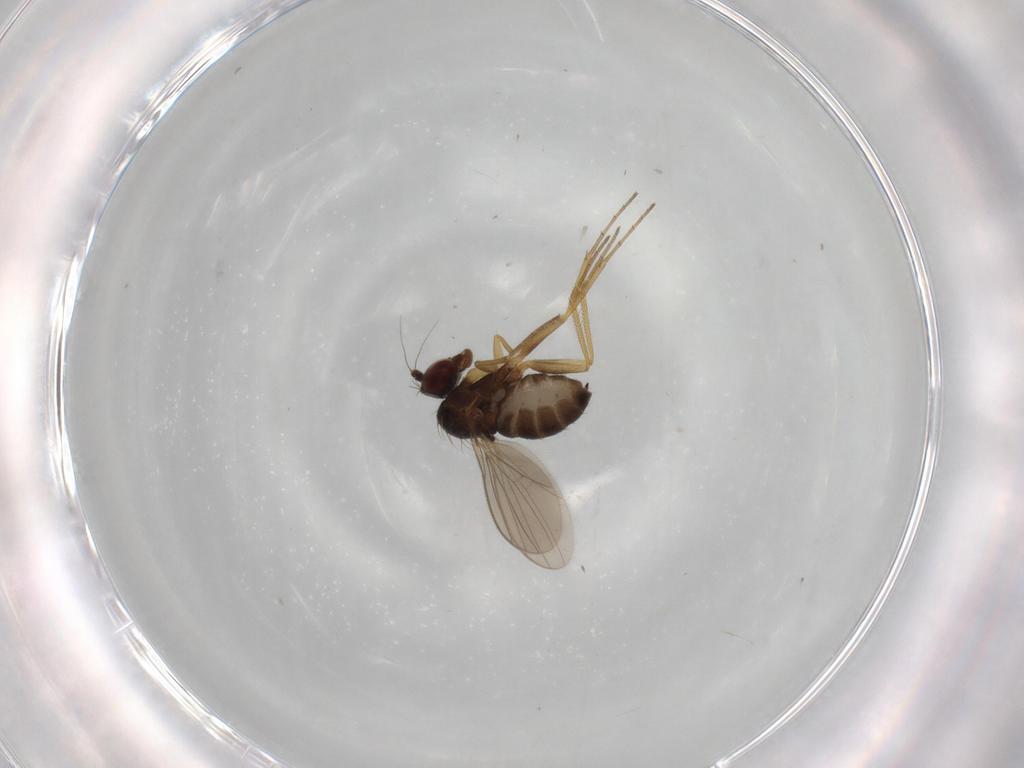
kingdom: Animalia
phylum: Arthropoda
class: Insecta
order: Diptera
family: Dolichopodidae
